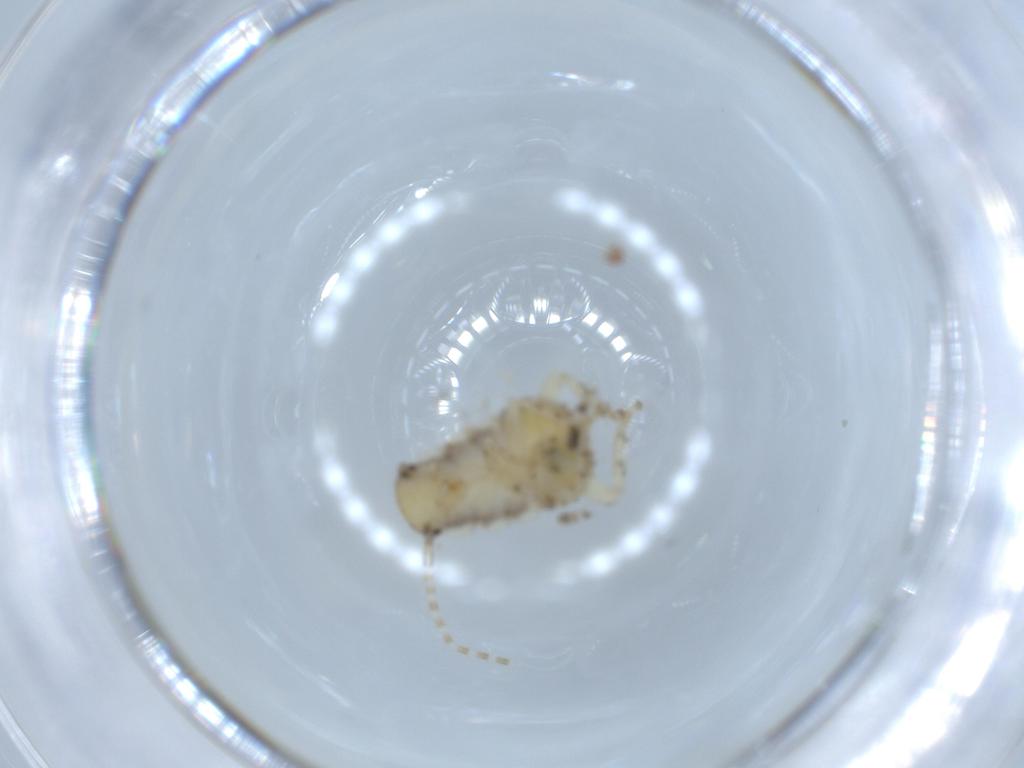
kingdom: Animalia
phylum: Arthropoda
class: Insecta
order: Blattodea
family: Ectobiidae
